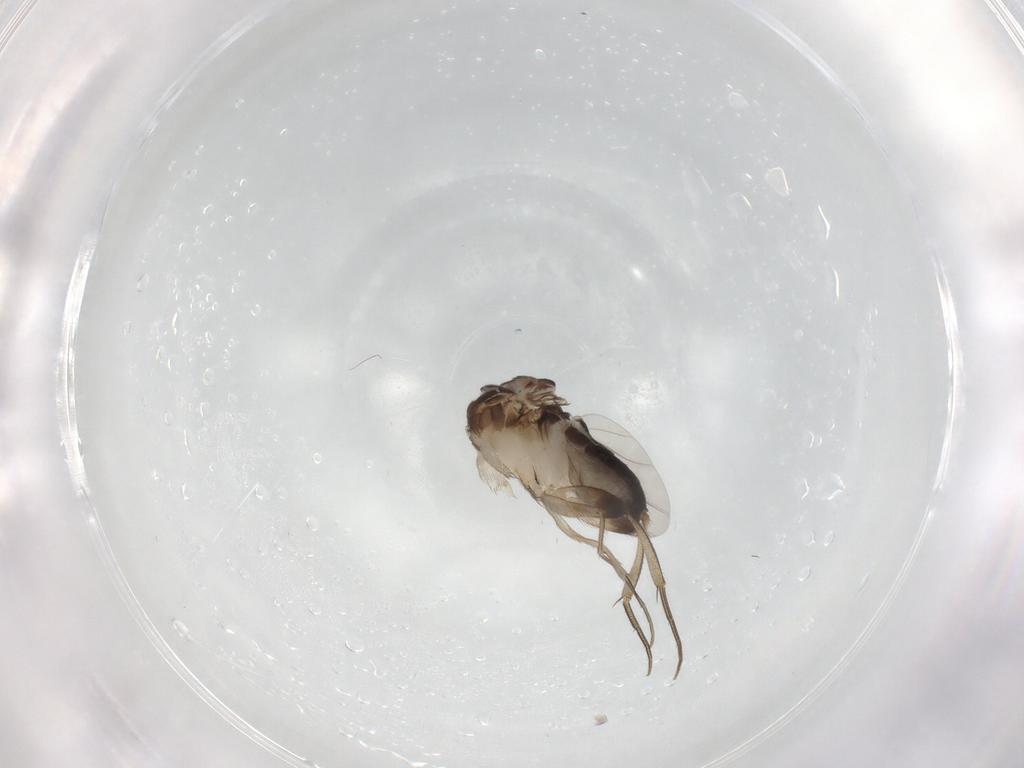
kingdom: Animalia
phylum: Arthropoda
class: Insecta
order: Diptera
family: Phoridae
